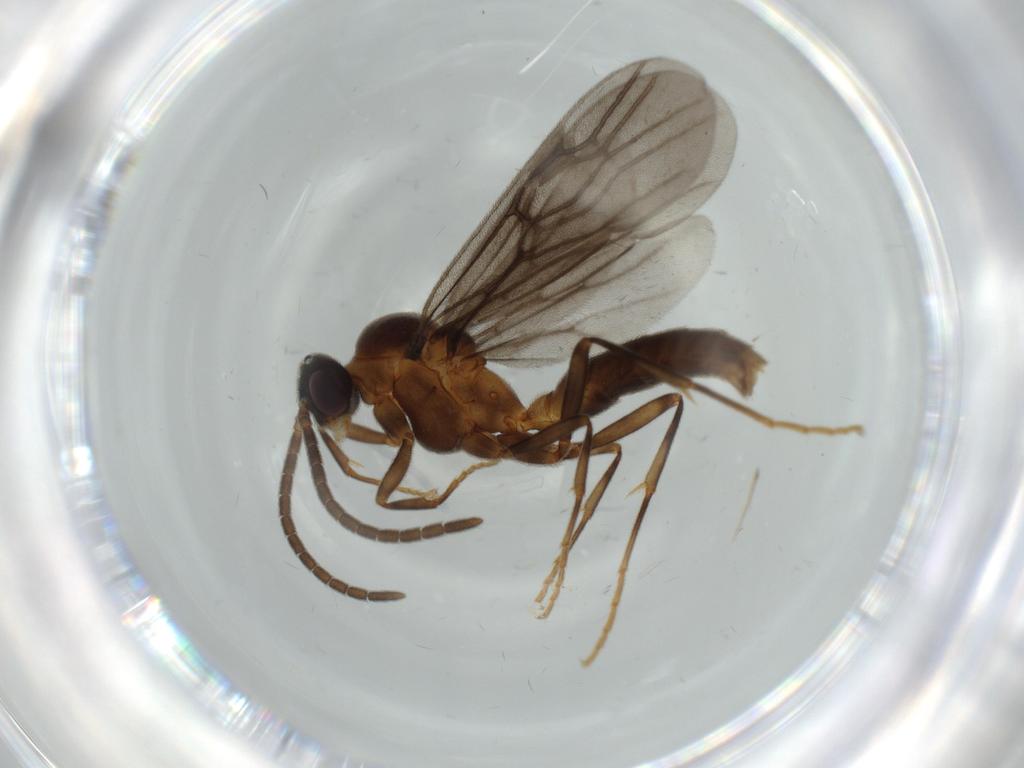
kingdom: Animalia
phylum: Arthropoda
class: Insecta
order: Hymenoptera
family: Formicidae
